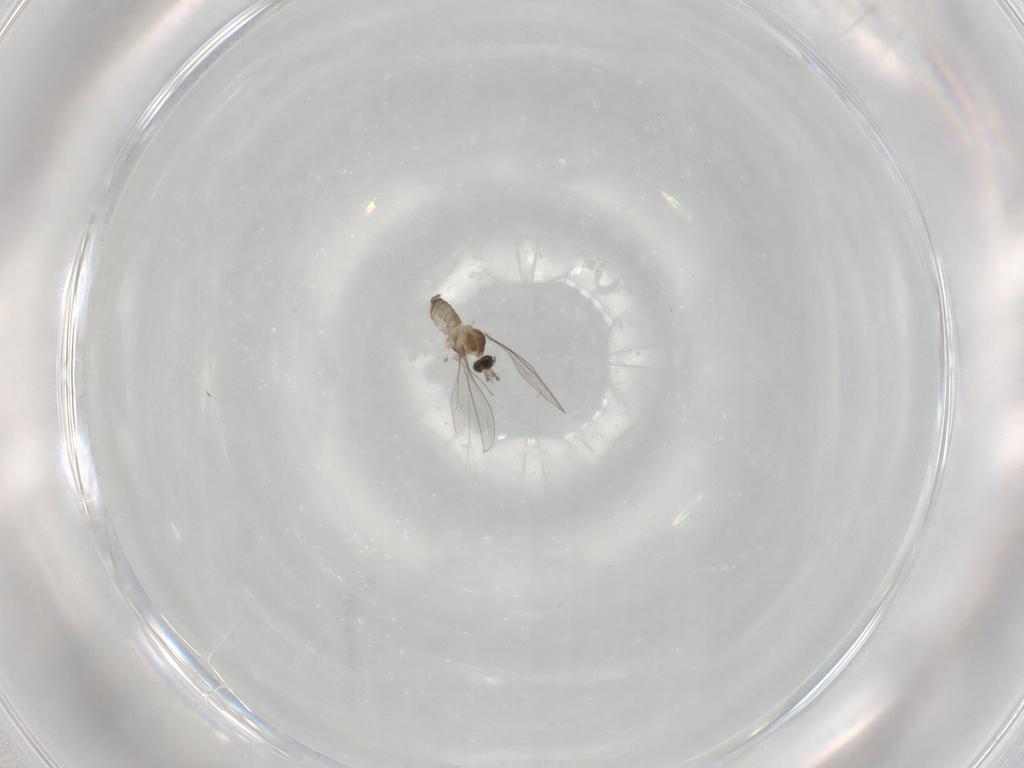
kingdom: Animalia
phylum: Arthropoda
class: Insecta
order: Diptera
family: Cecidomyiidae
